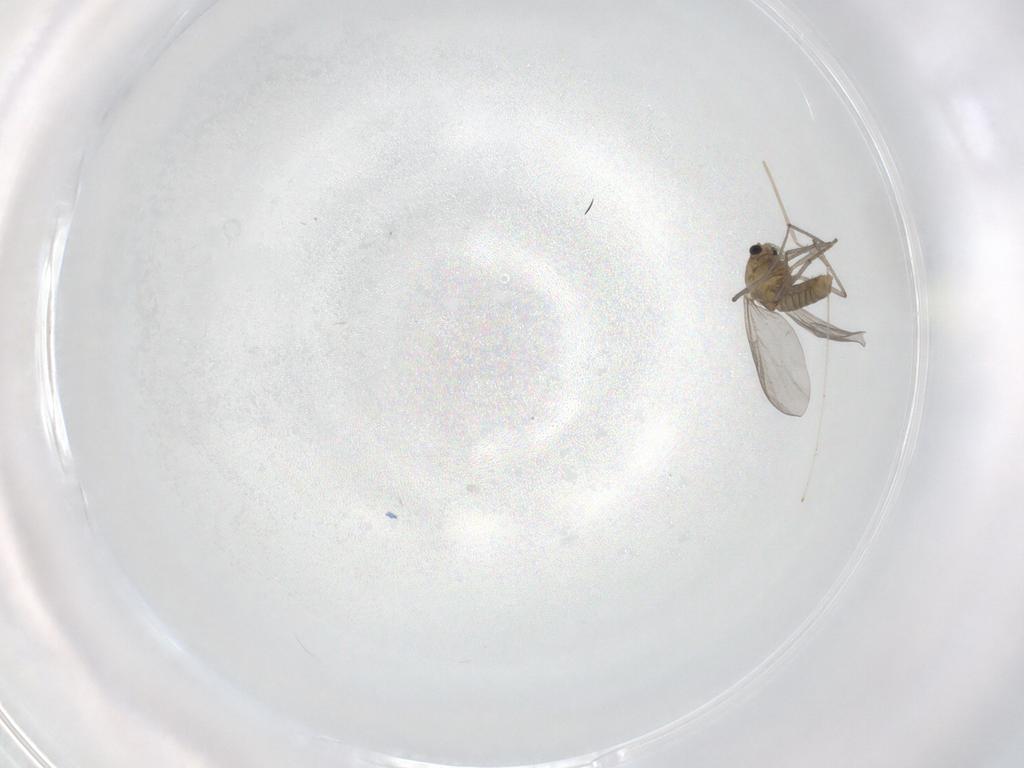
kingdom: Animalia
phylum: Arthropoda
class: Insecta
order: Diptera
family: Chironomidae
